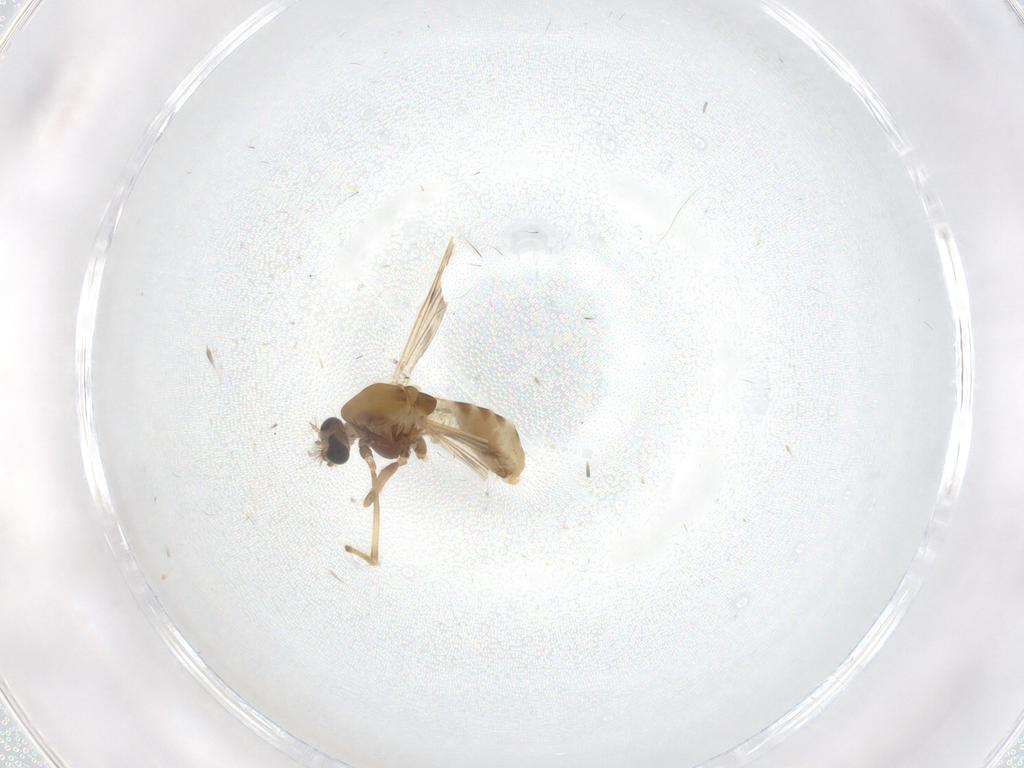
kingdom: Animalia
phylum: Arthropoda
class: Insecta
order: Diptera
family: Chironomidae
